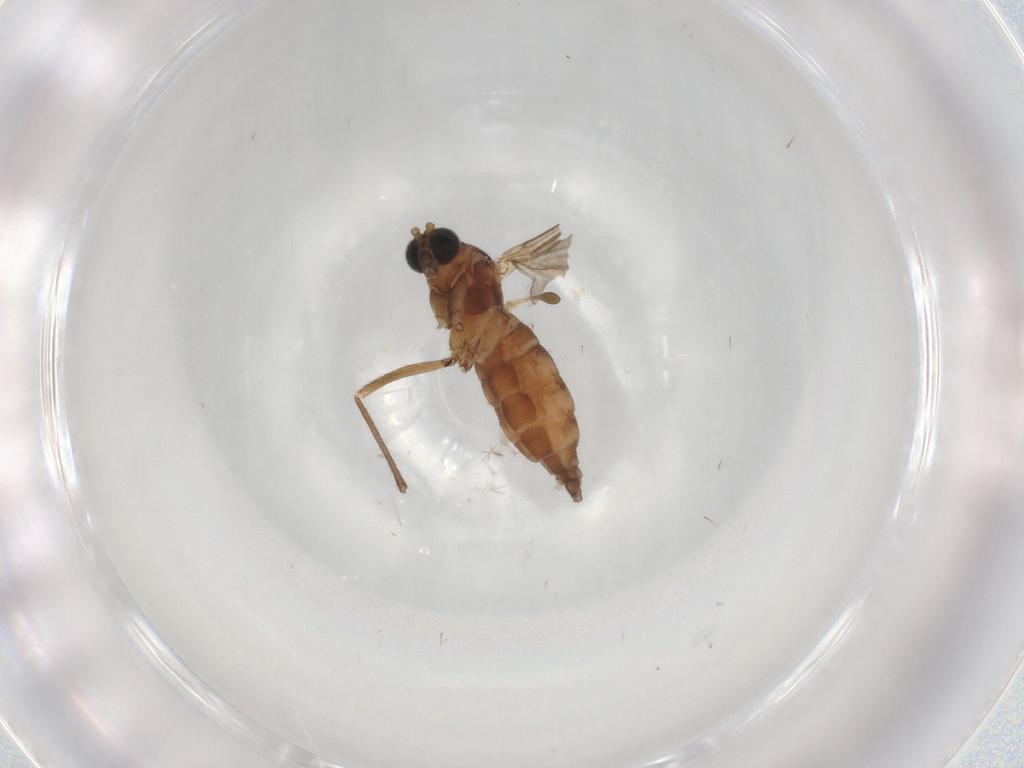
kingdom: Animalia
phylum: Arthropoda
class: Insecta
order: Diptera
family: Sciaridae
